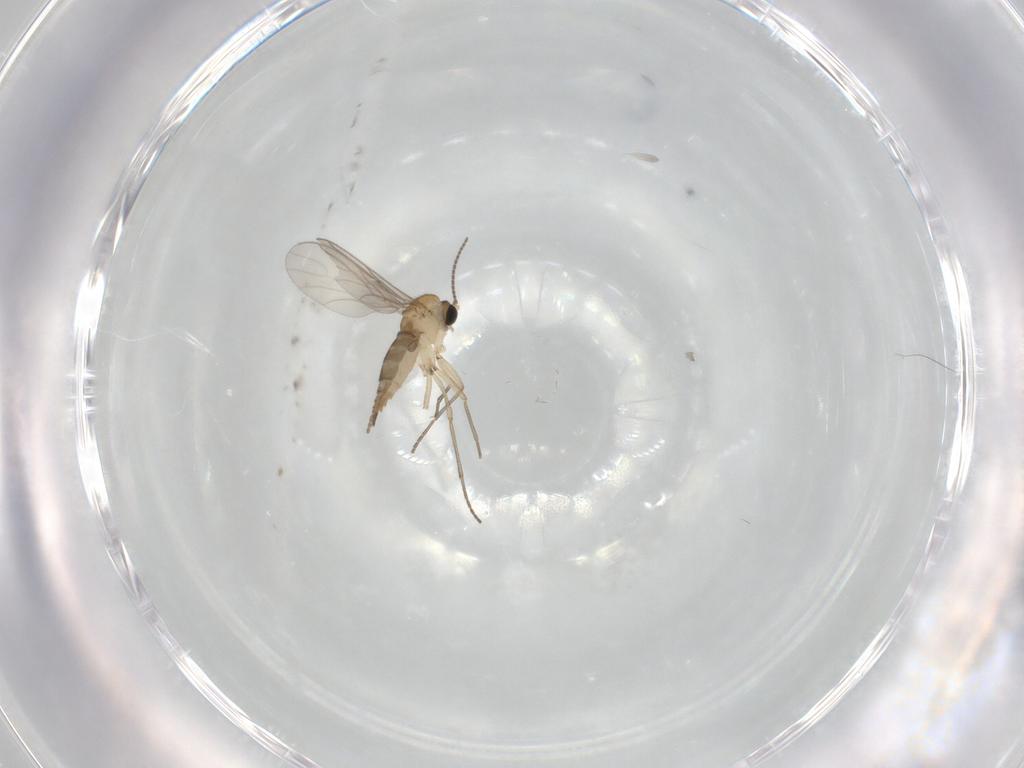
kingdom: Animalia
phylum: Arthropoda
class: Insecta
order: Diptera
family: Sciaridae
